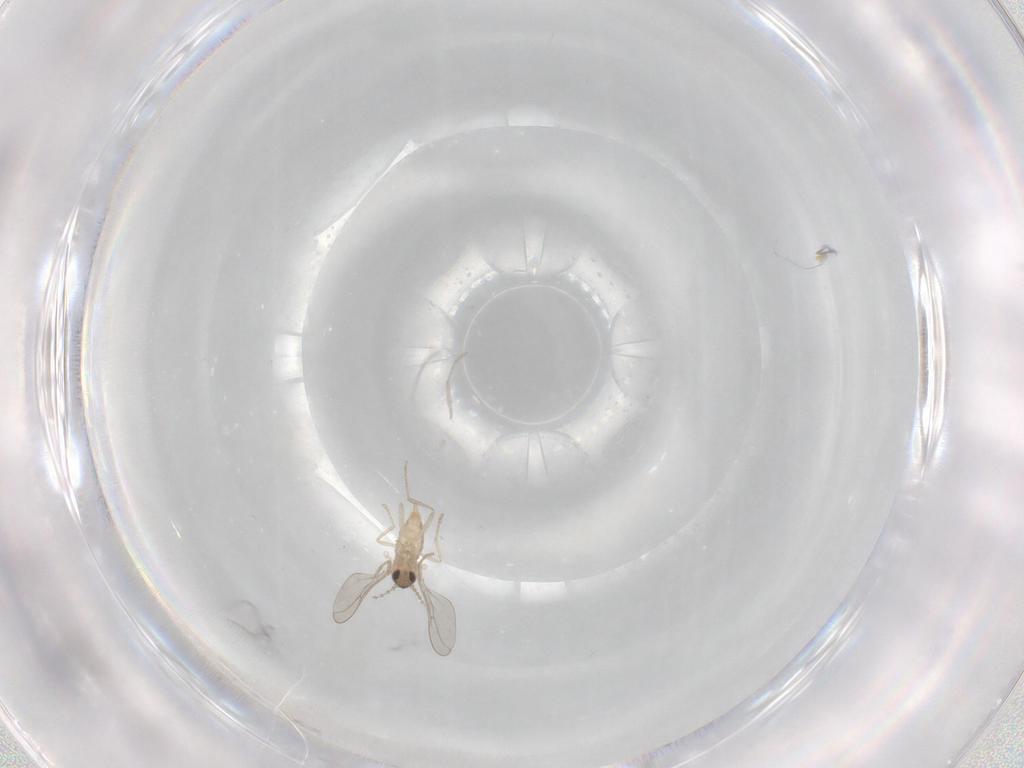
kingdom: Animalia
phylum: Arthropoda
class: Insecta
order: Diptera
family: Cecidomyiidae
